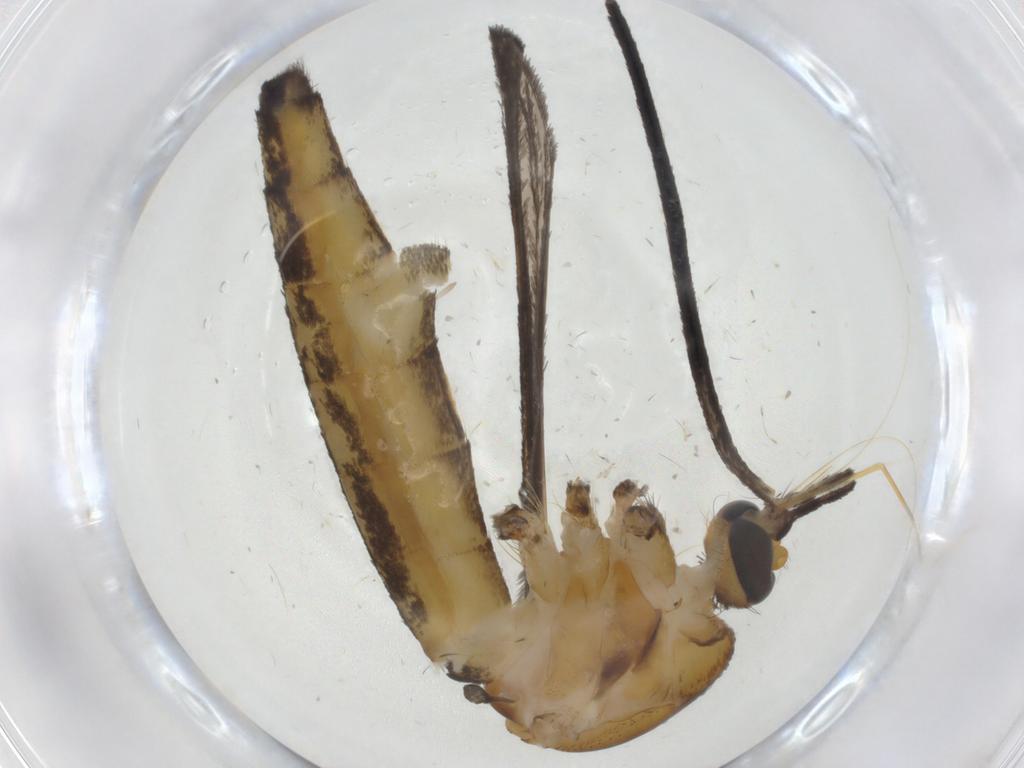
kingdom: Animalia
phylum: Arthropoda
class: Insecta
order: Diptera
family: Culicidae
